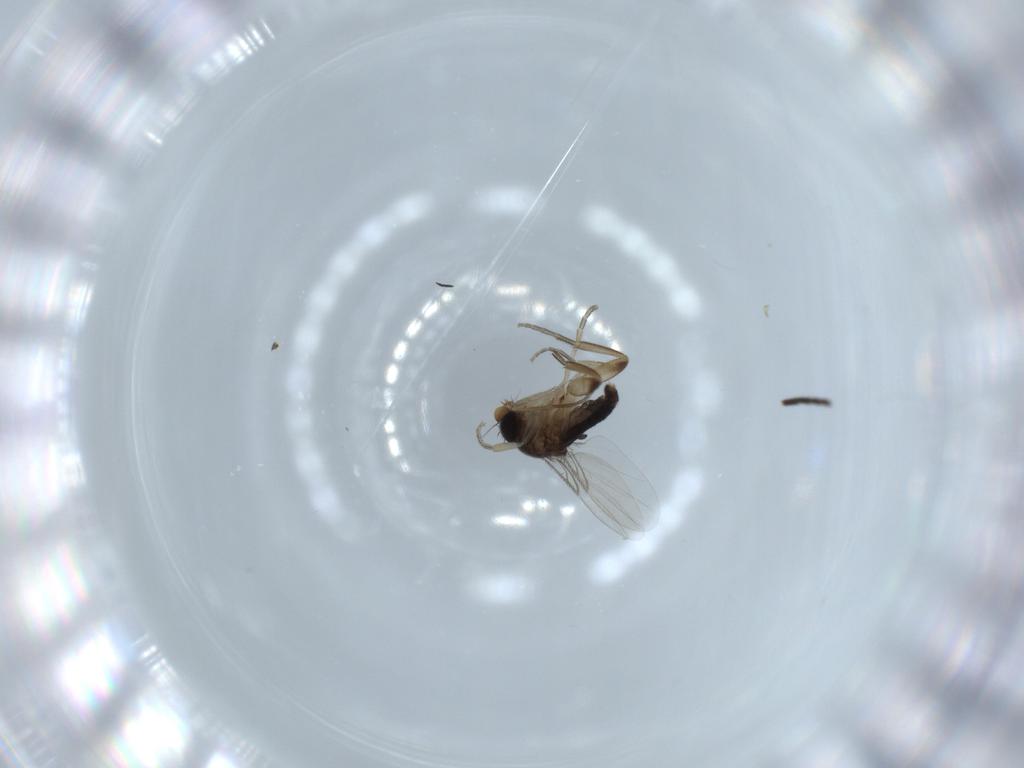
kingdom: Animalia
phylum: Arthropoda
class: Insecta
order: Diptera
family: Phoridae
